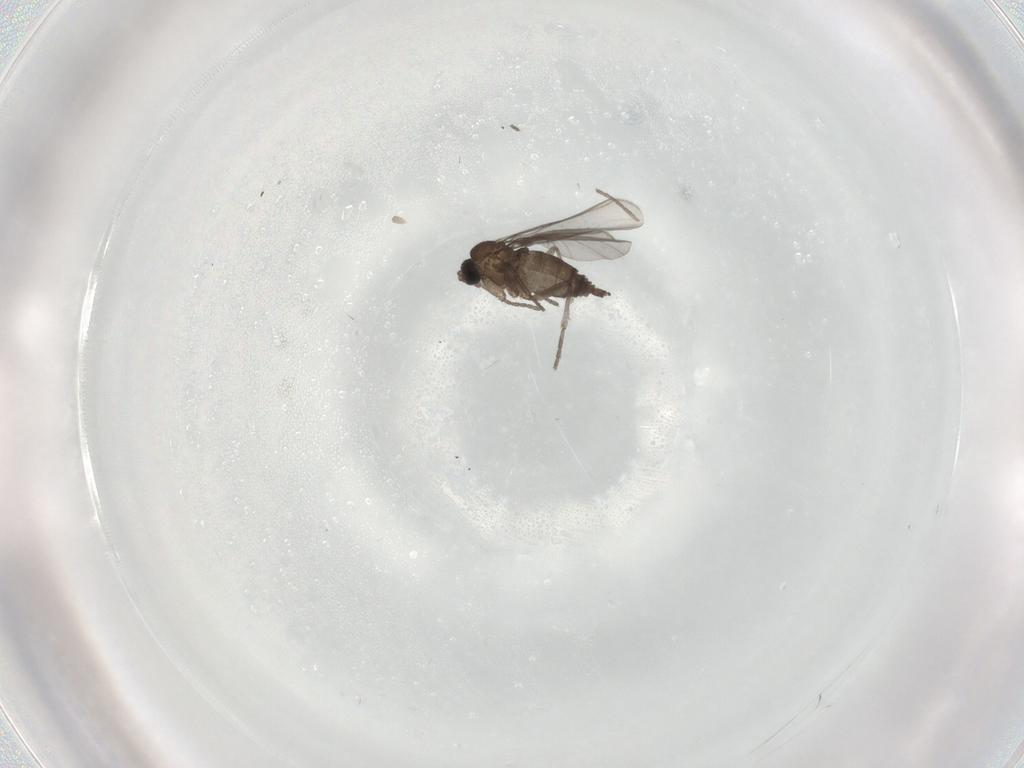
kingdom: Animalia
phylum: Arthropoda
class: Insecta
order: Diptera
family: Sciaridae
